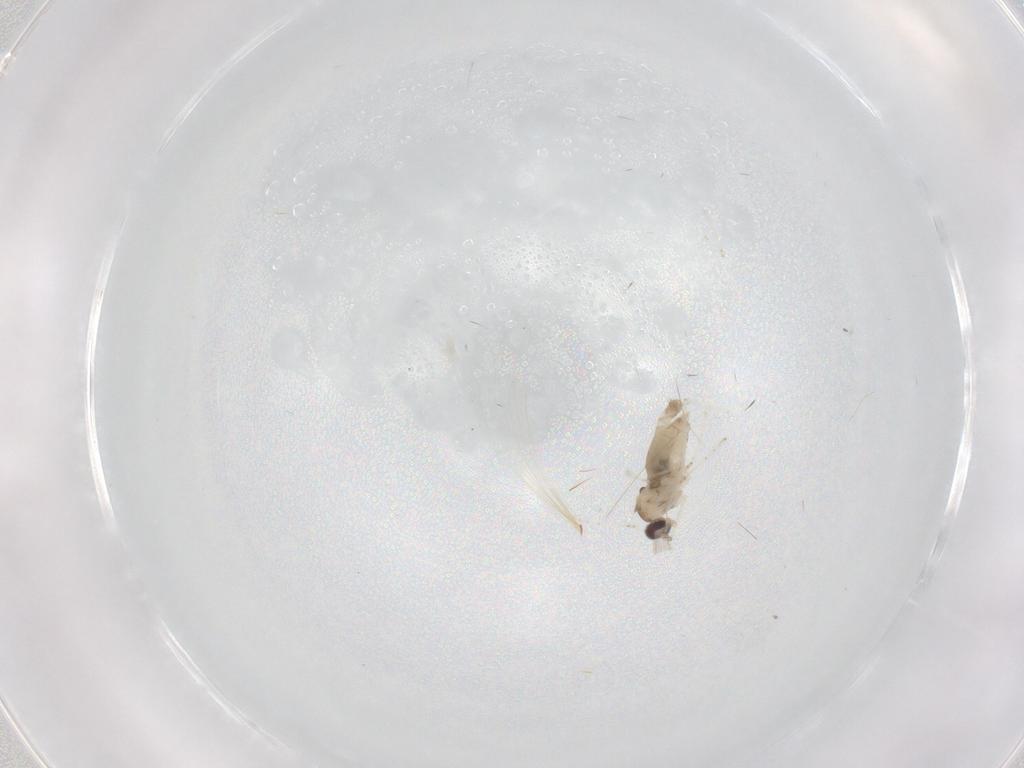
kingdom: Animalia
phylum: Arthropoda
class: Insecta
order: Diptera
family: Cecidomyiidae
